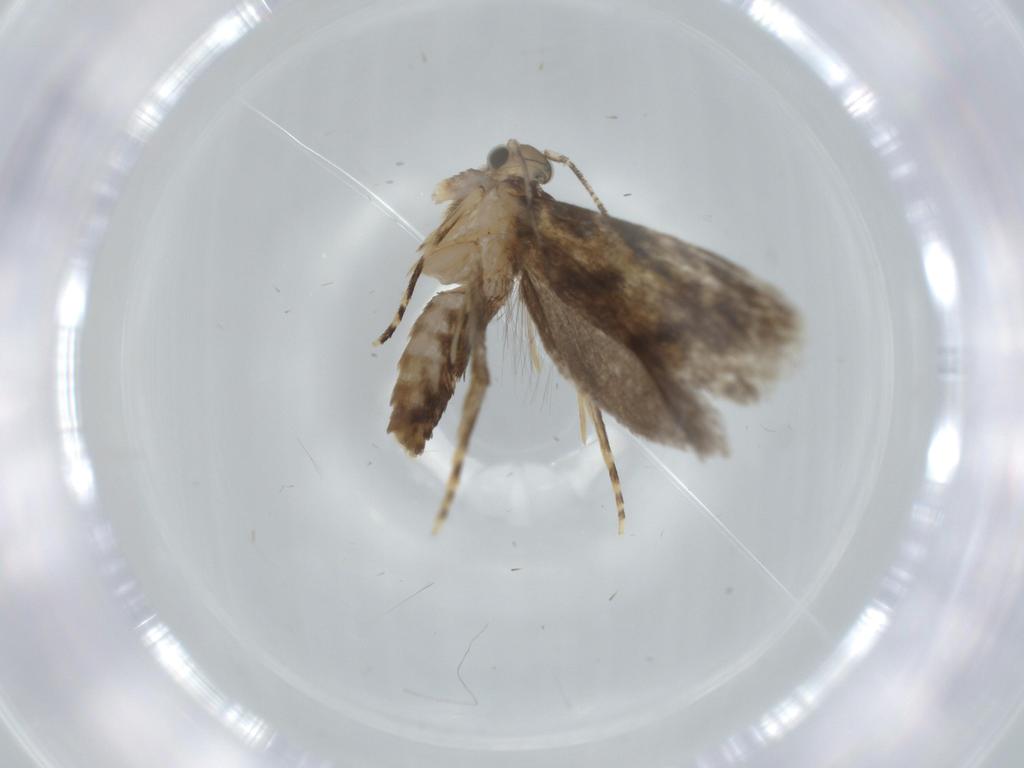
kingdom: Animalia
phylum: Arthropoda
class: Insecta
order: Lepidoptera
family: Tineidae
